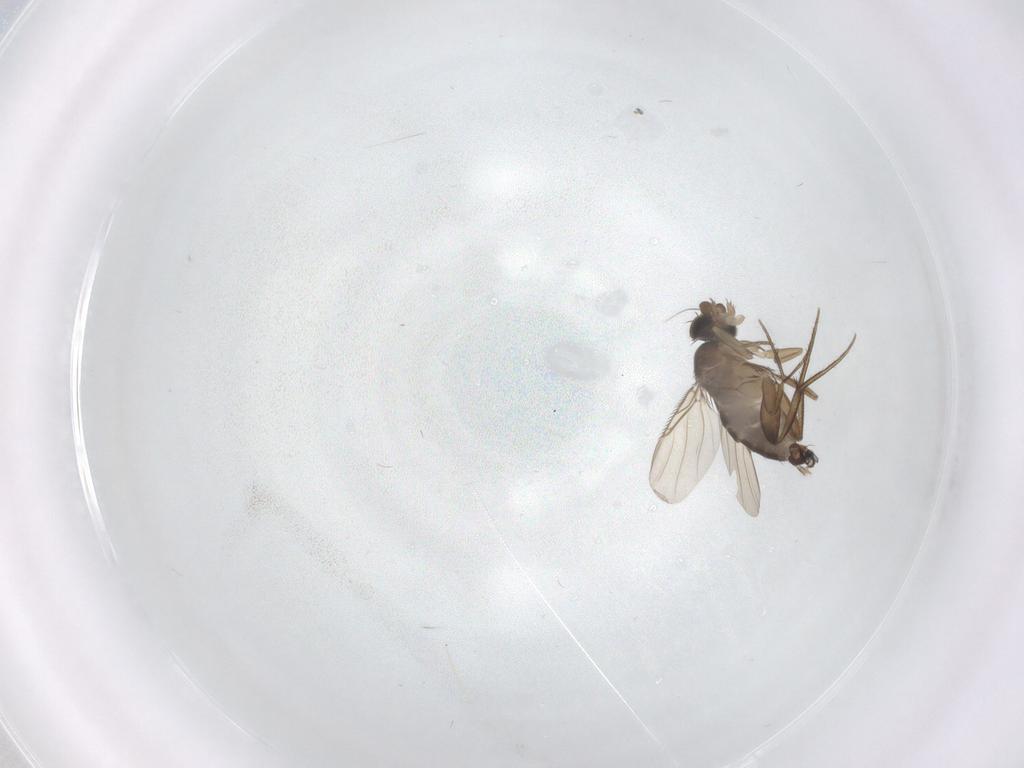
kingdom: Animalia
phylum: Arthropoda
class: Insecta
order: Diptera
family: Phoridae
